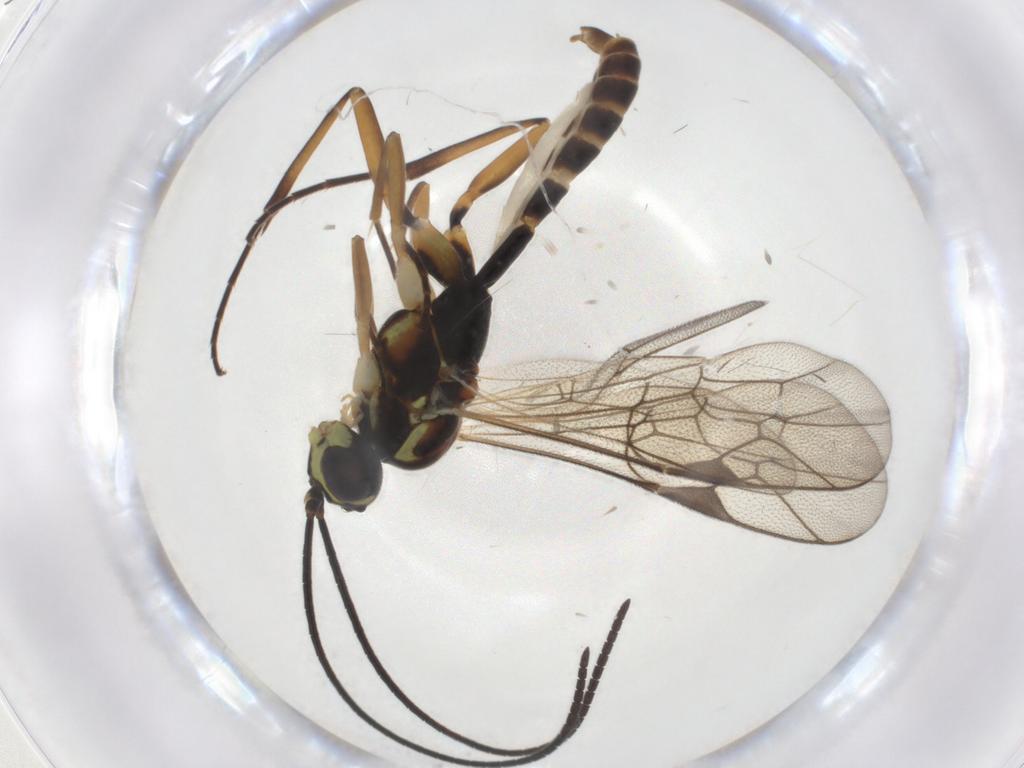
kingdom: Animalia
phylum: Arthropoda
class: Insecta
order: Hymenoptera
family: Ichneumonidae
